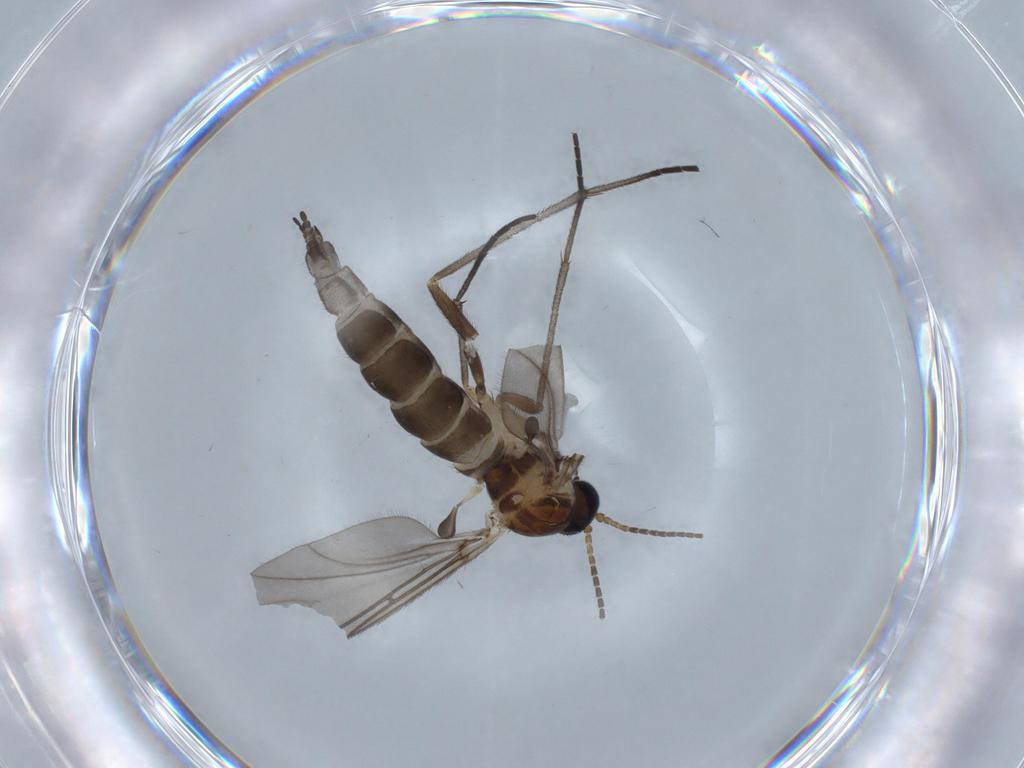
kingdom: Animalia
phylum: Arthropoda
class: Insecta
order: Diptera
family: Sciaridae
